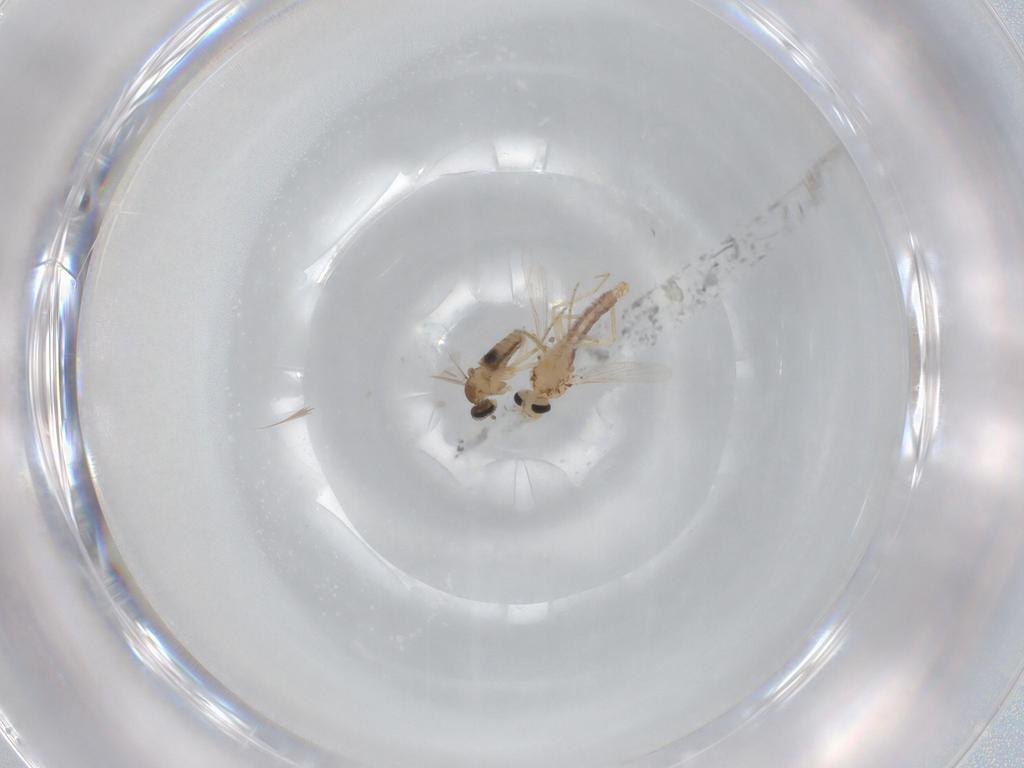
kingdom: Animalia
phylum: Arthropoda
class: Insecta
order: Diptera
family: Ceratopogonidae
